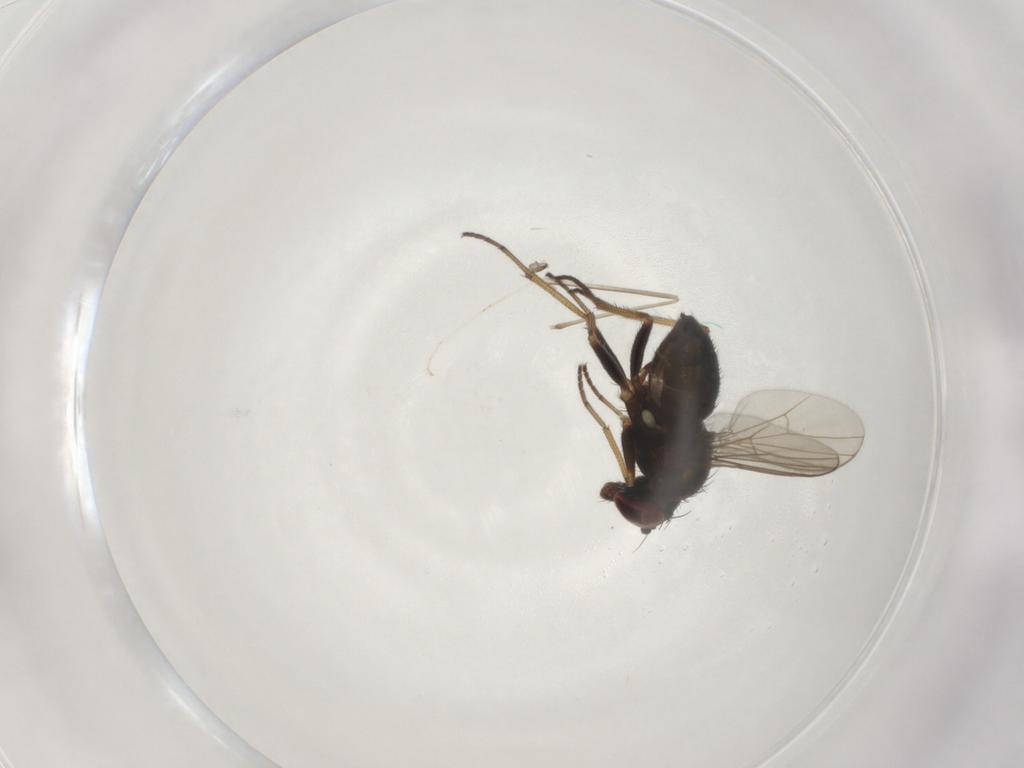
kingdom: Animalia
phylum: Arthropoda
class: Insecta
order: Diptera
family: Dolichopodidae
